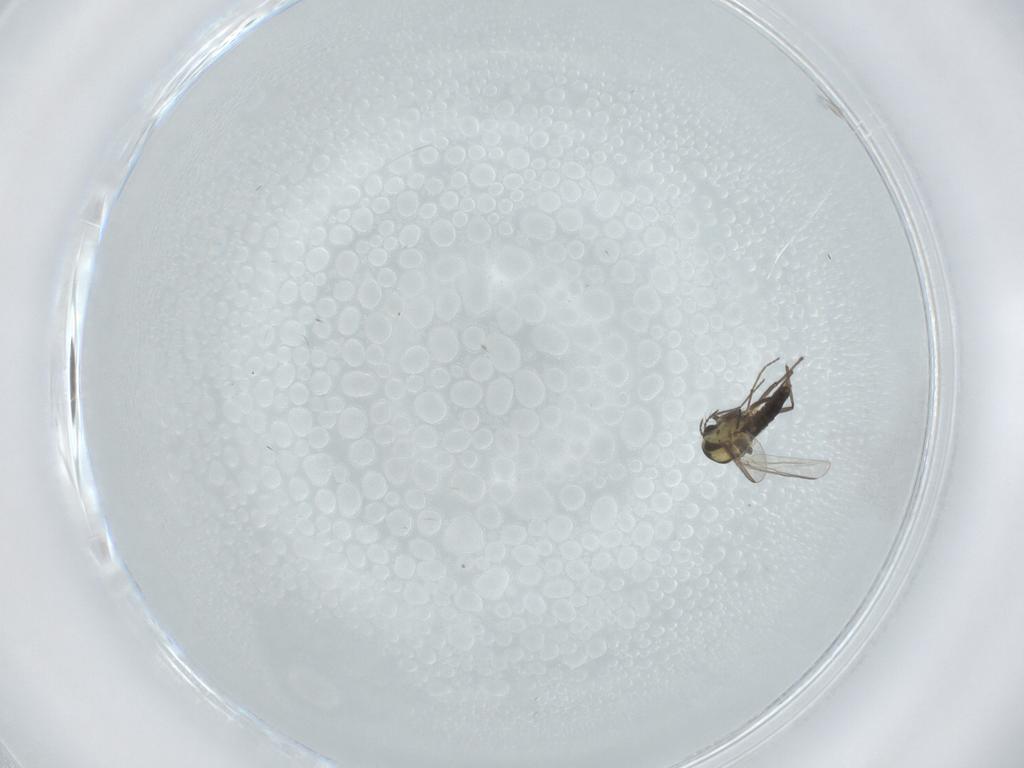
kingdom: Animalia
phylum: Arthropoda
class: Insecta
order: Diptera
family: Chironomidae
